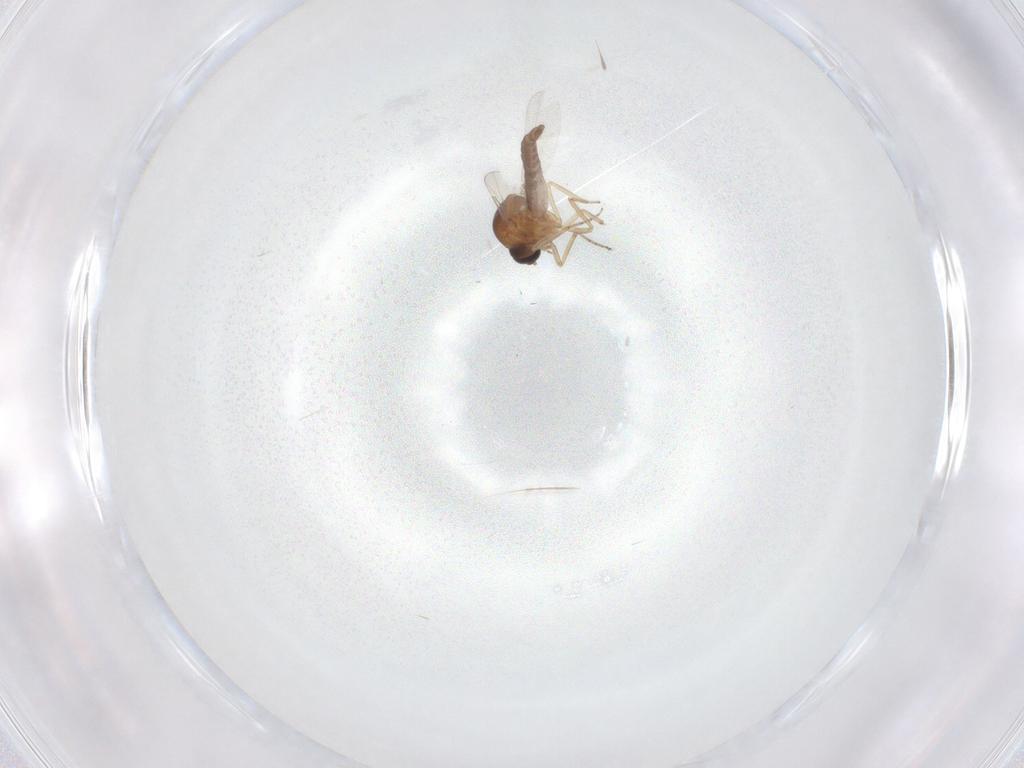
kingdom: Animalia
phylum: Arthropoda
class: Insecta
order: Diptera
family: Ceratopogonidae
